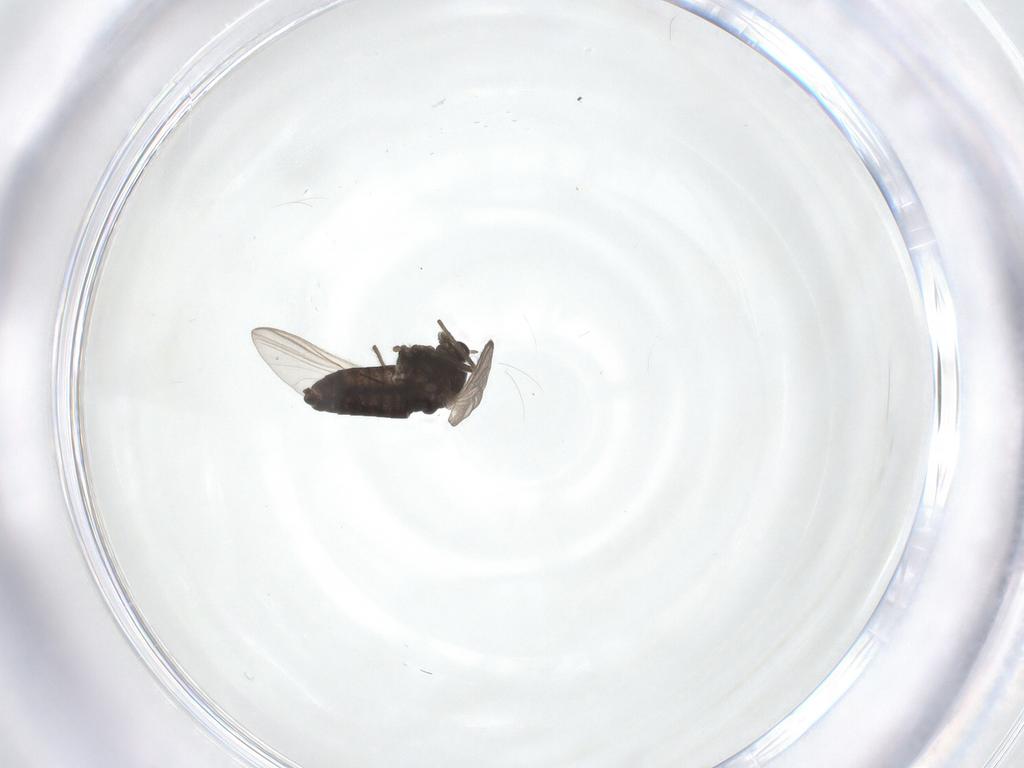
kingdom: Animalia
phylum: Arthropoda
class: Insecta
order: Diptera
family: Chironomidae
